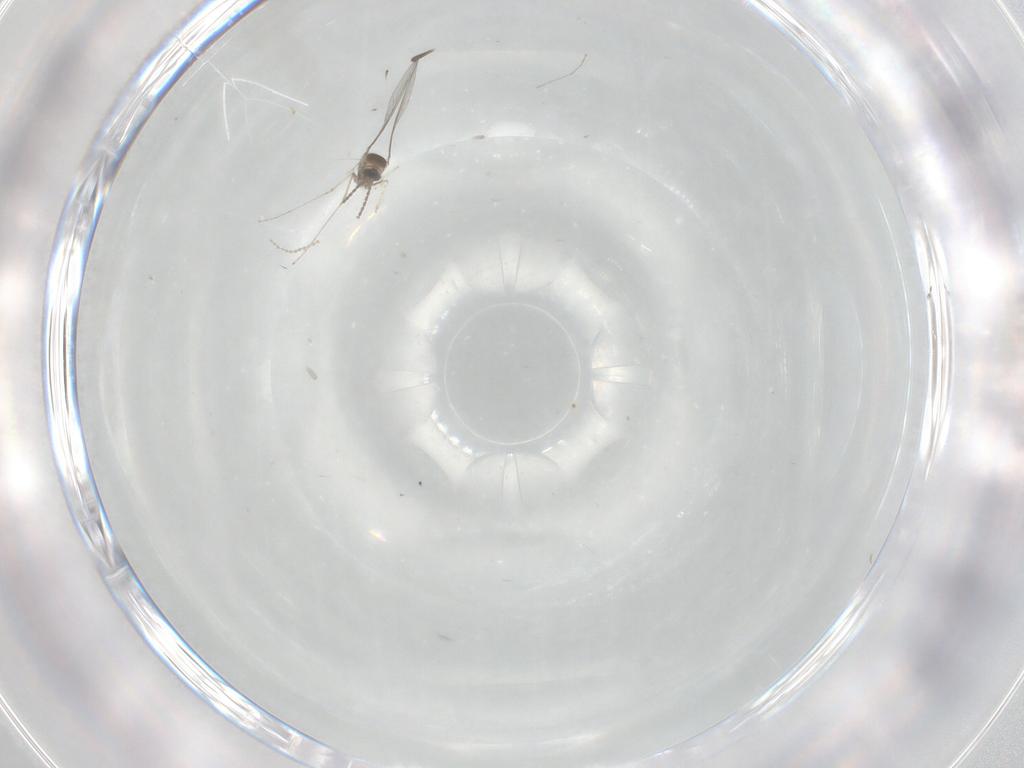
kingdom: Animalia
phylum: Arthropoda
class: Insecta
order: Diptera
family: Cecidomyiidae
